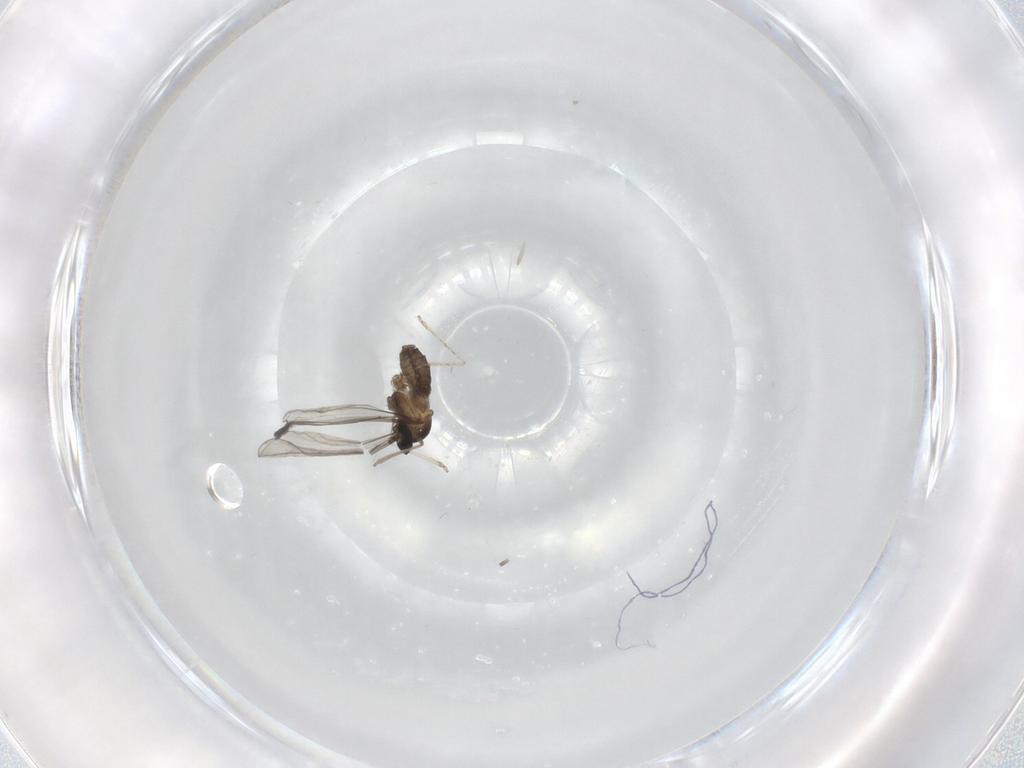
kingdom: Animalia
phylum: Arthropoda
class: Insecta
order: Diptera
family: Cecidomyiidae
